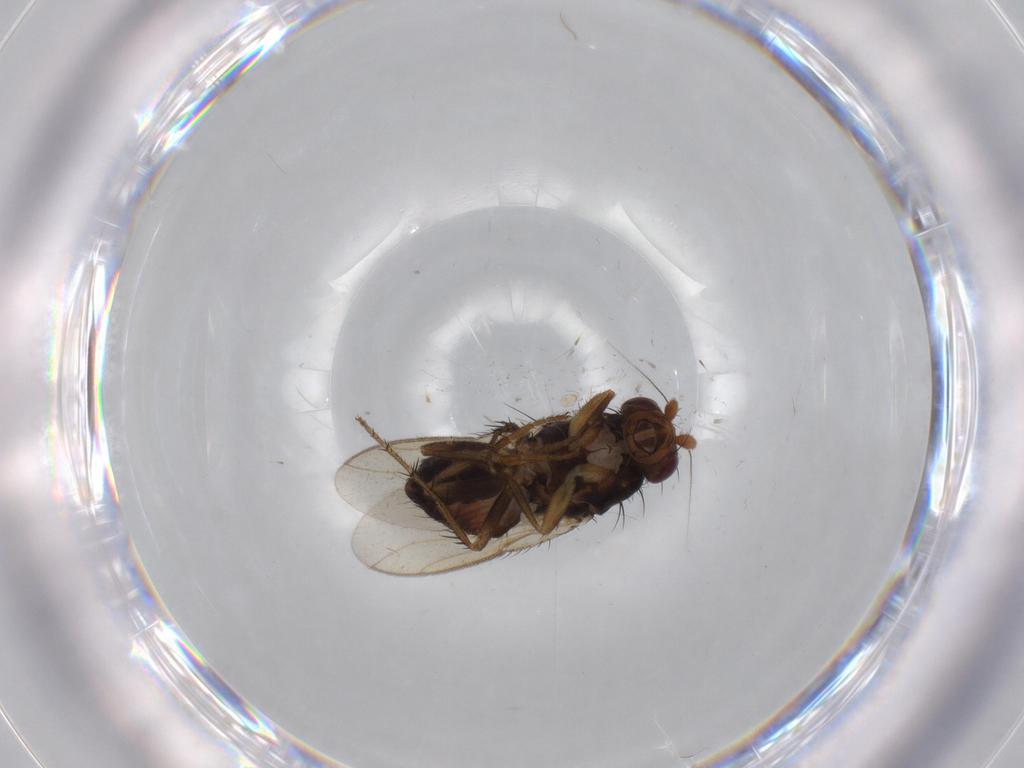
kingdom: Animalia
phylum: Arthropoda
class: Insecta
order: Diptera
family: Sphaeroceridae
